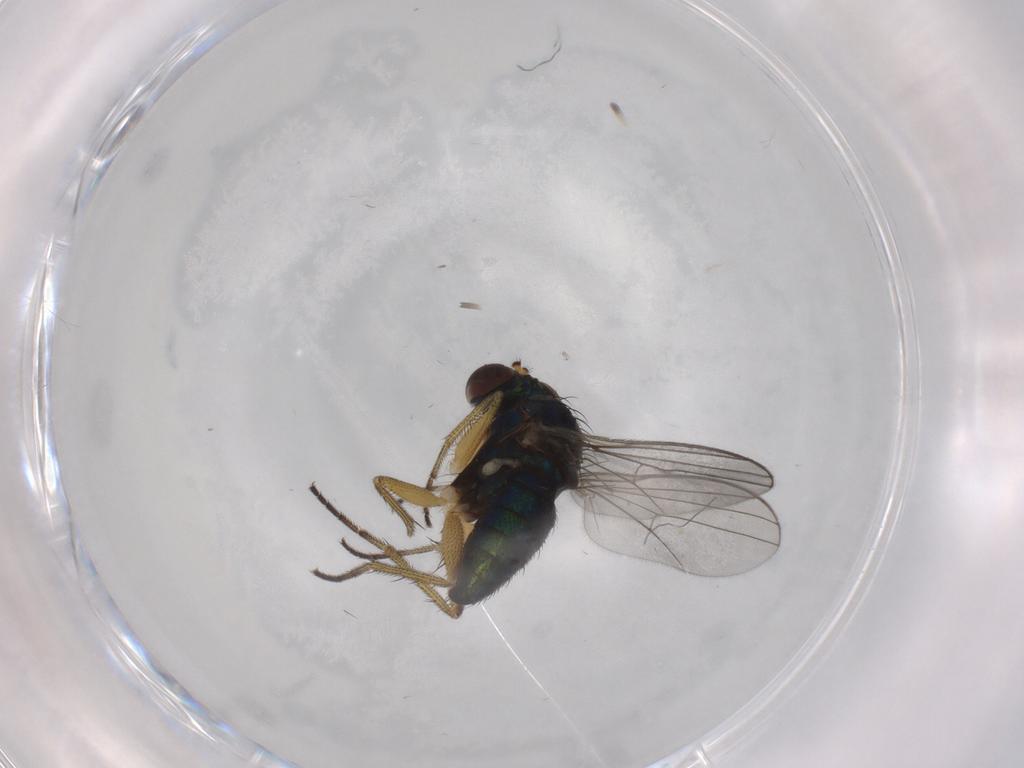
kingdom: Animalia
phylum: Arthropoda
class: Insecta
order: Diptera
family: Dolichopodidae
